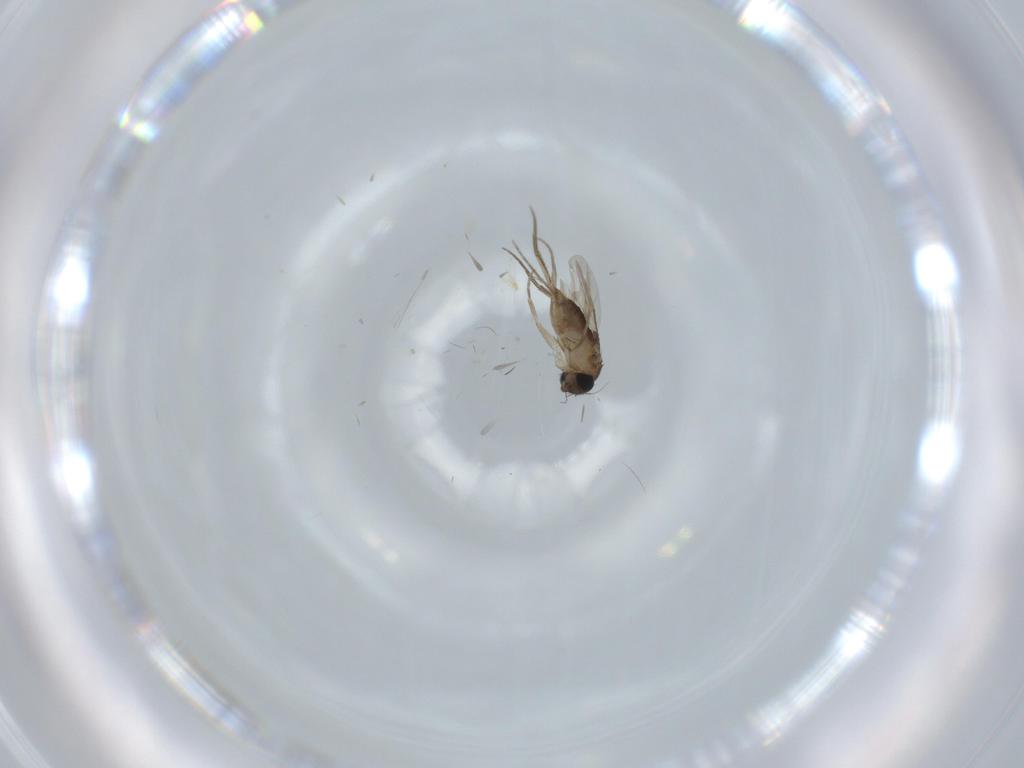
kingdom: Animalia
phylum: Arthropoda
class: Insecta
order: Diptera
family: Phoridae
